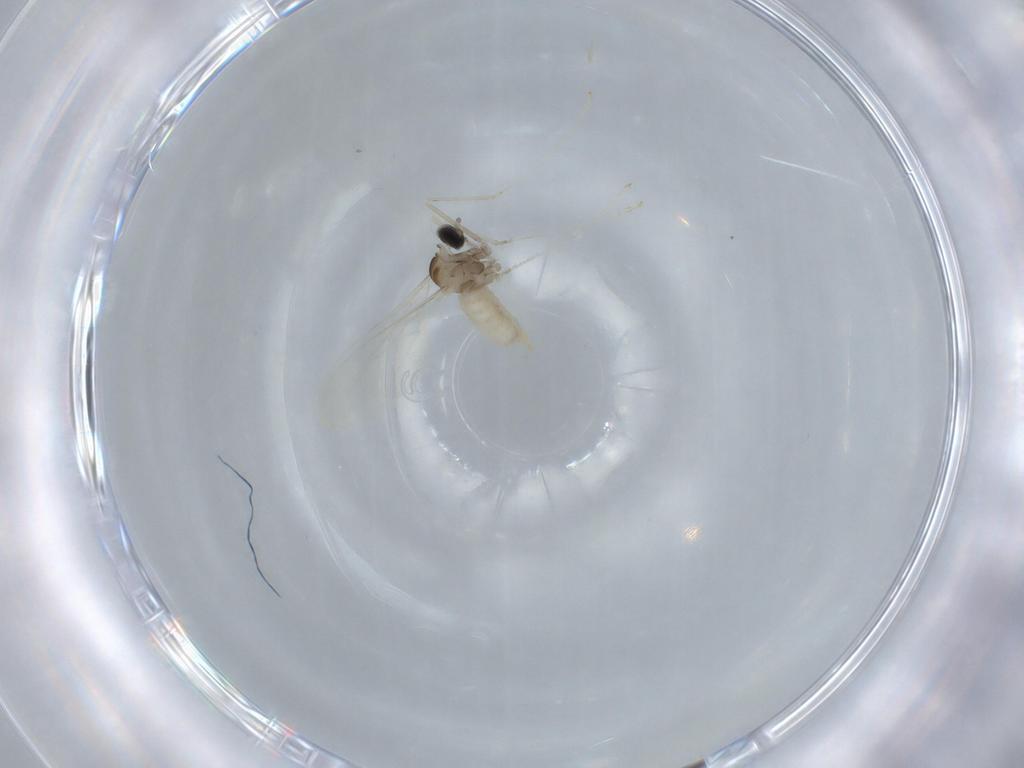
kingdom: Animalia
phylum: Arthropoda
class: Insecta
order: Diptera
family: Cecidomyiidae
